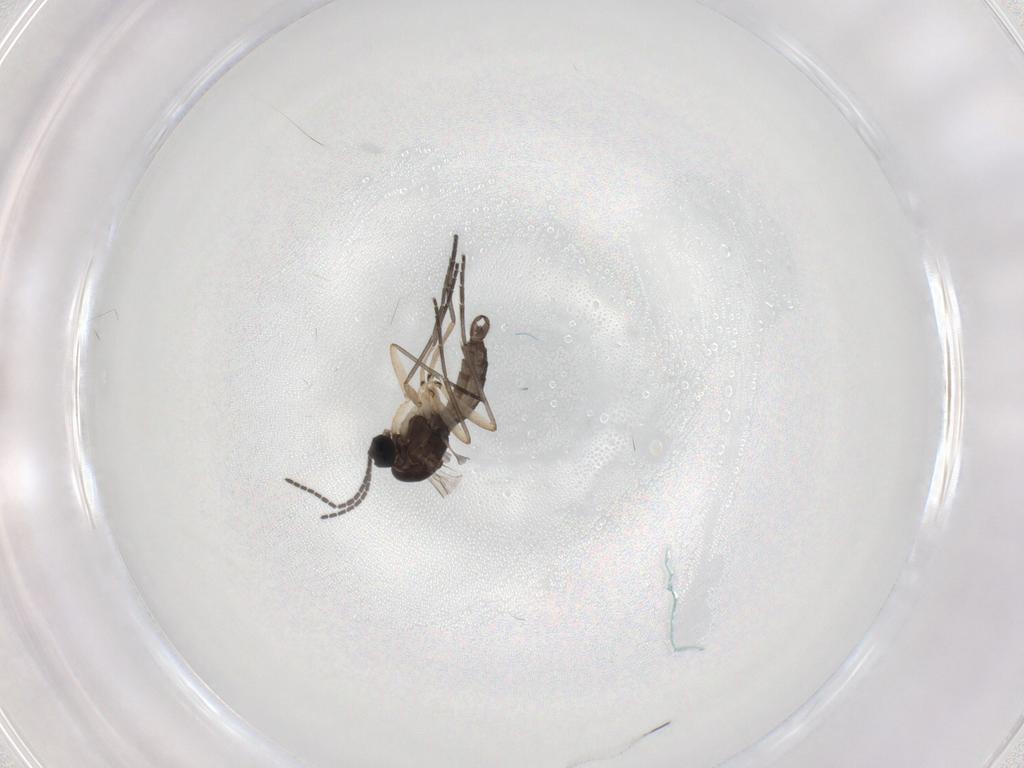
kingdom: Animalia
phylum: Arthropoda
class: Insecta
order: Diptera
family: Sciaridae
